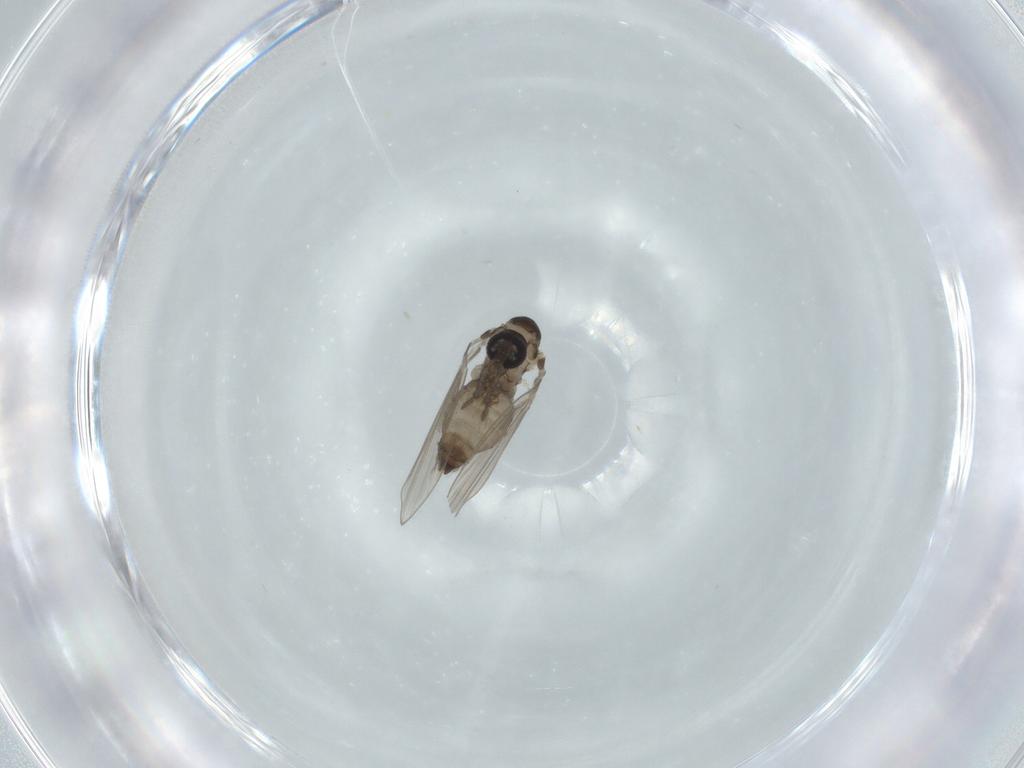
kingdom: Animalia
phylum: Arthropoda
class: Insecta
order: Diptera
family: Psychodidae
